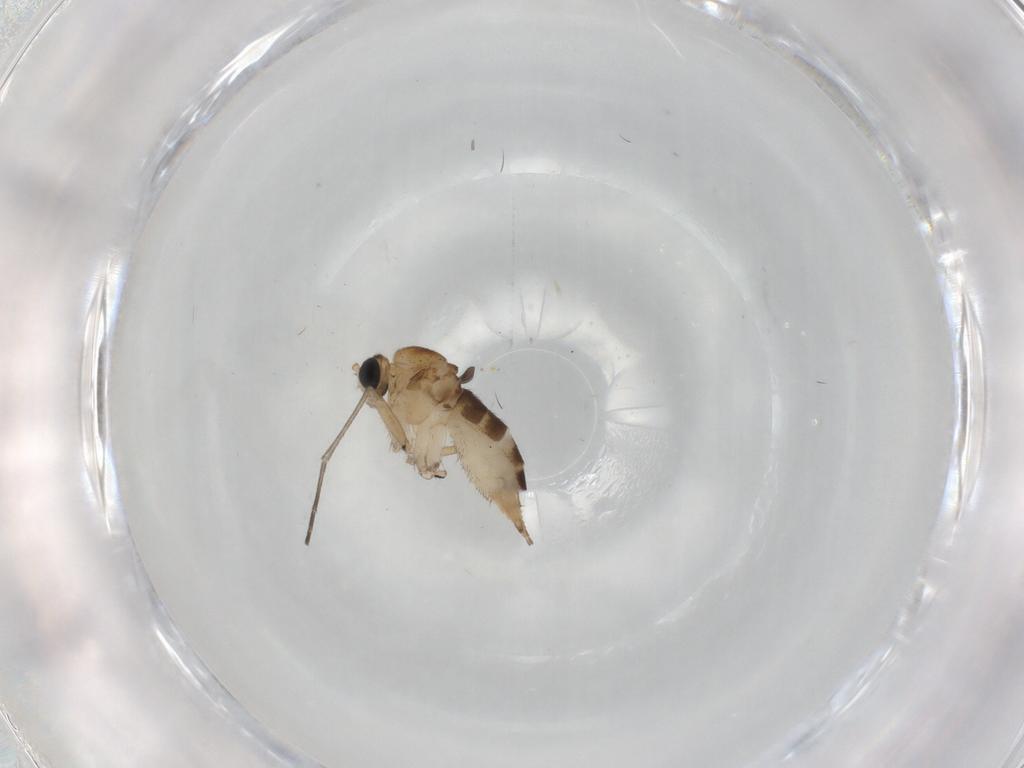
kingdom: Animalia
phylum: Arthropoda
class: Insecta
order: Diptera
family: Sciaridae
